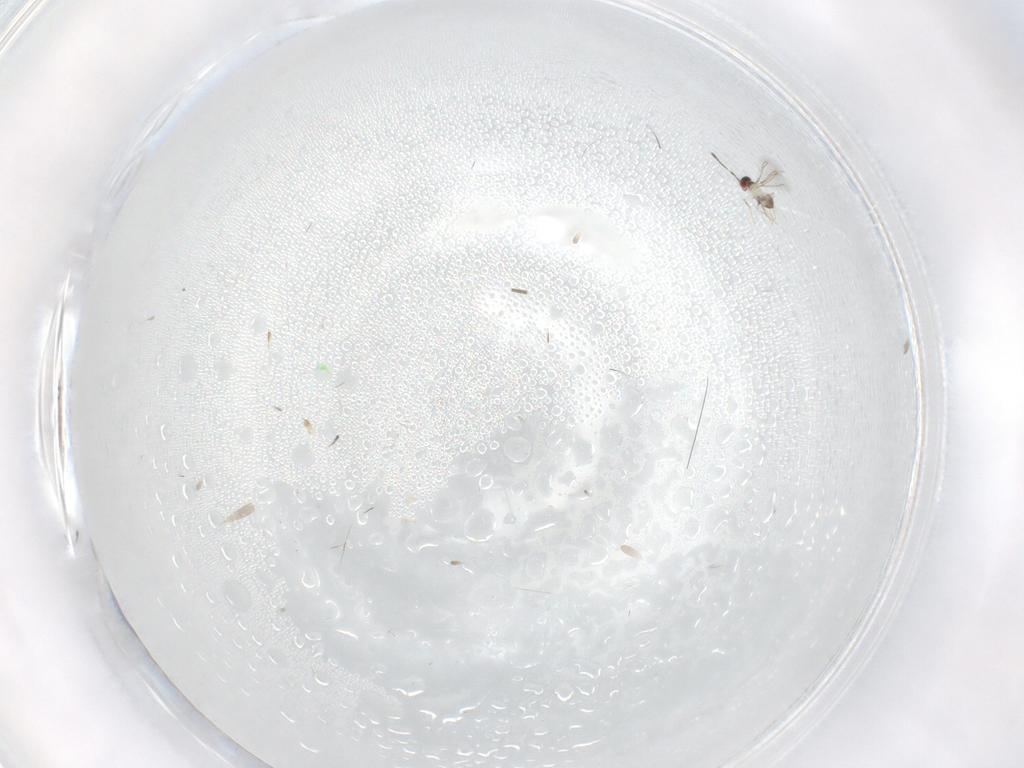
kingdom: Animalia
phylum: Arthropoda
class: Insecta
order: Hymenoptera
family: Mymaridae
